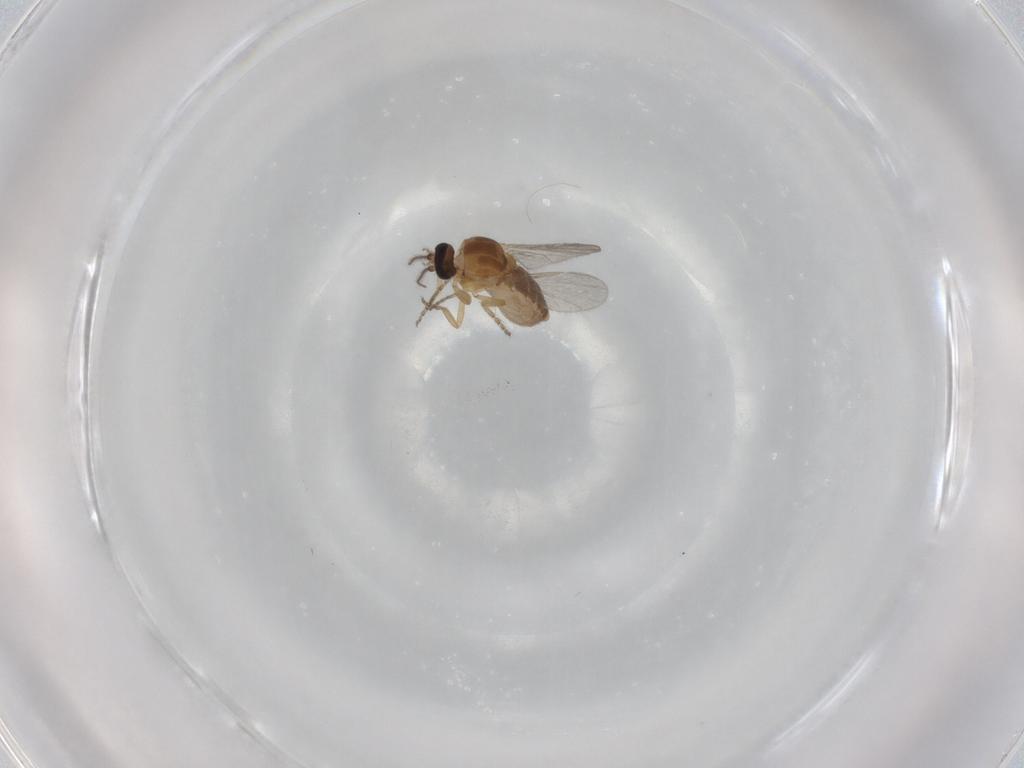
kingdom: Animalia
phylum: Arthropoda
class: Insecta
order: Diptera
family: Ceratopogonidae
